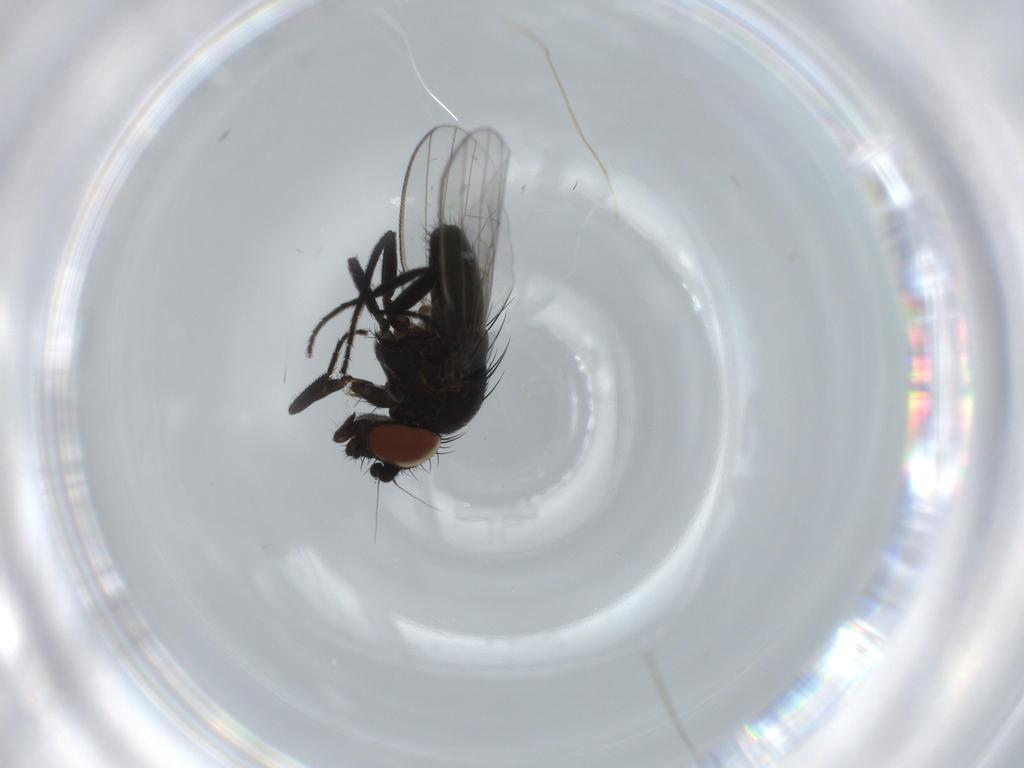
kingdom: Animalia
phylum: Arthropoda
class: Insecta
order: Diptera
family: Milichiidae
